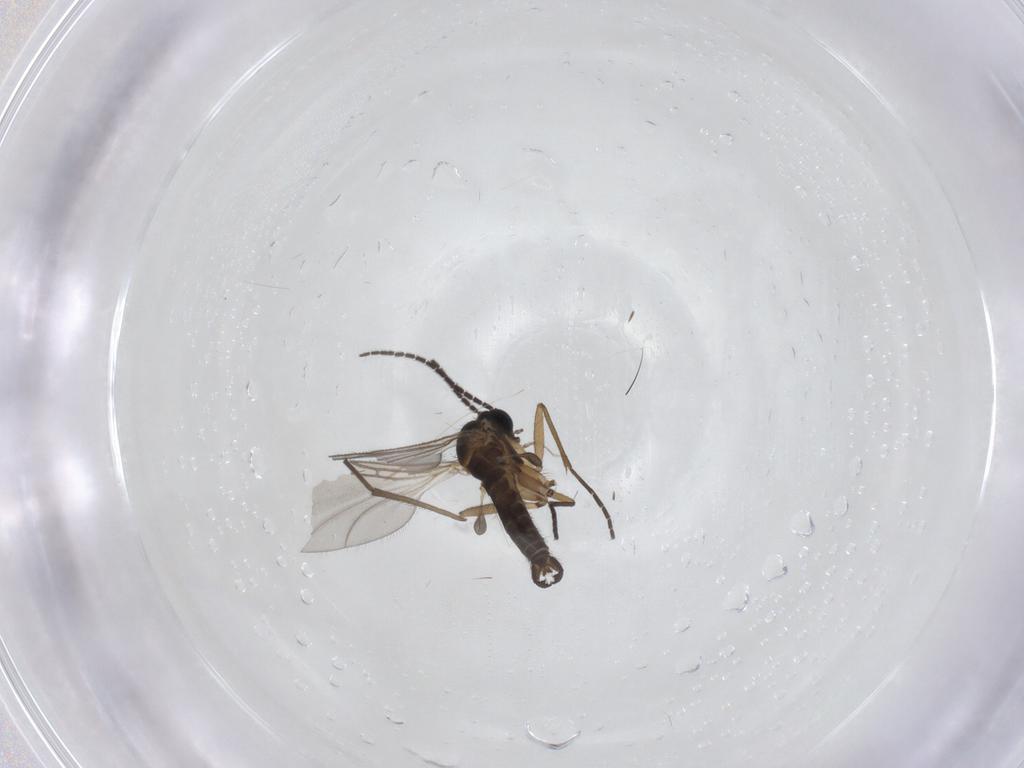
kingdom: Animalia
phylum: Arthropoda
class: Insecta
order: Diptera
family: Sciaridae
